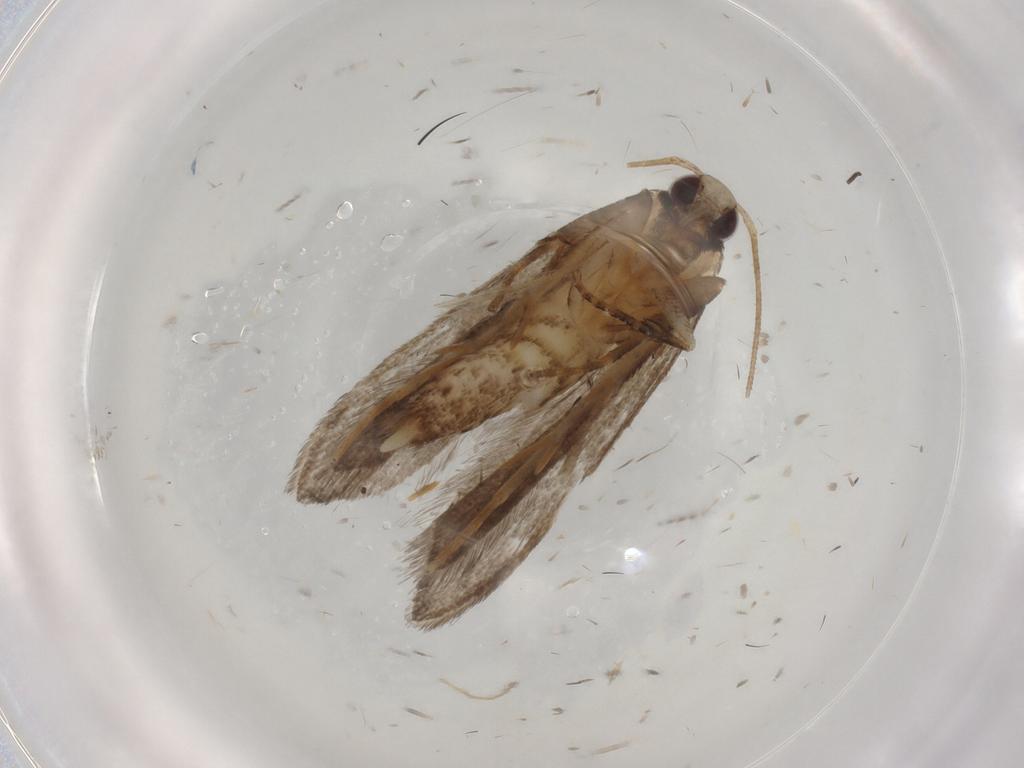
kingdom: Animalia
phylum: Arthropoda
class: Insecta
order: Lepidoptera
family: Gelechiidae
